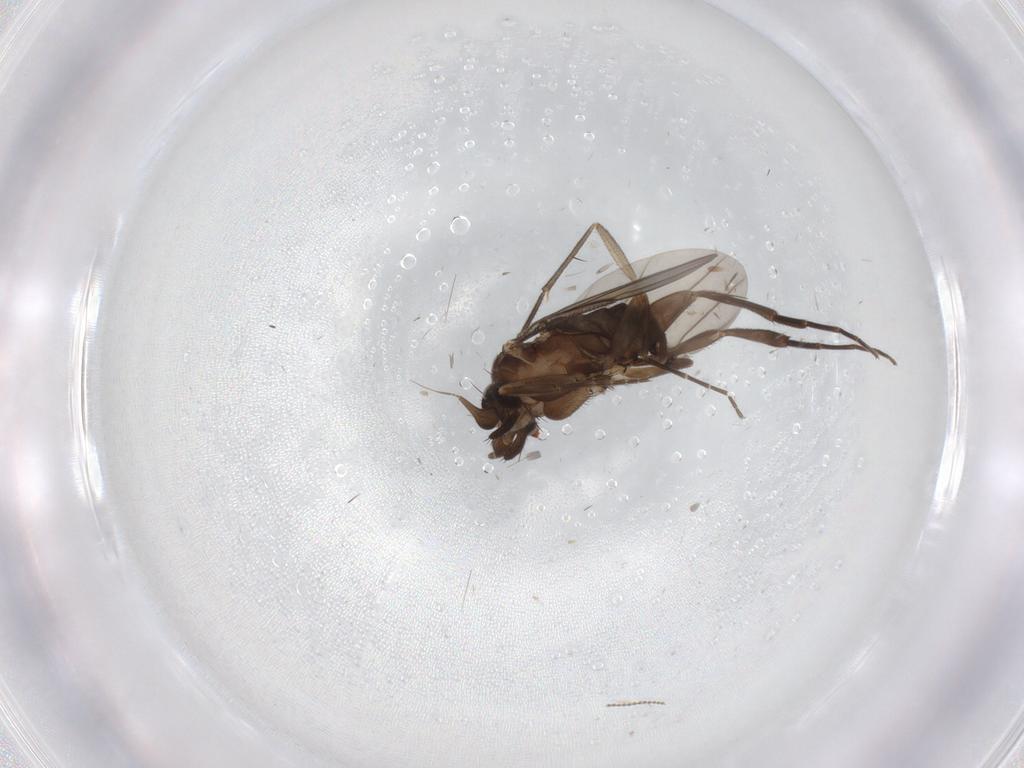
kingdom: Animalia
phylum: Arthropoda
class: Insecta
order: Diptera
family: Phoridae
